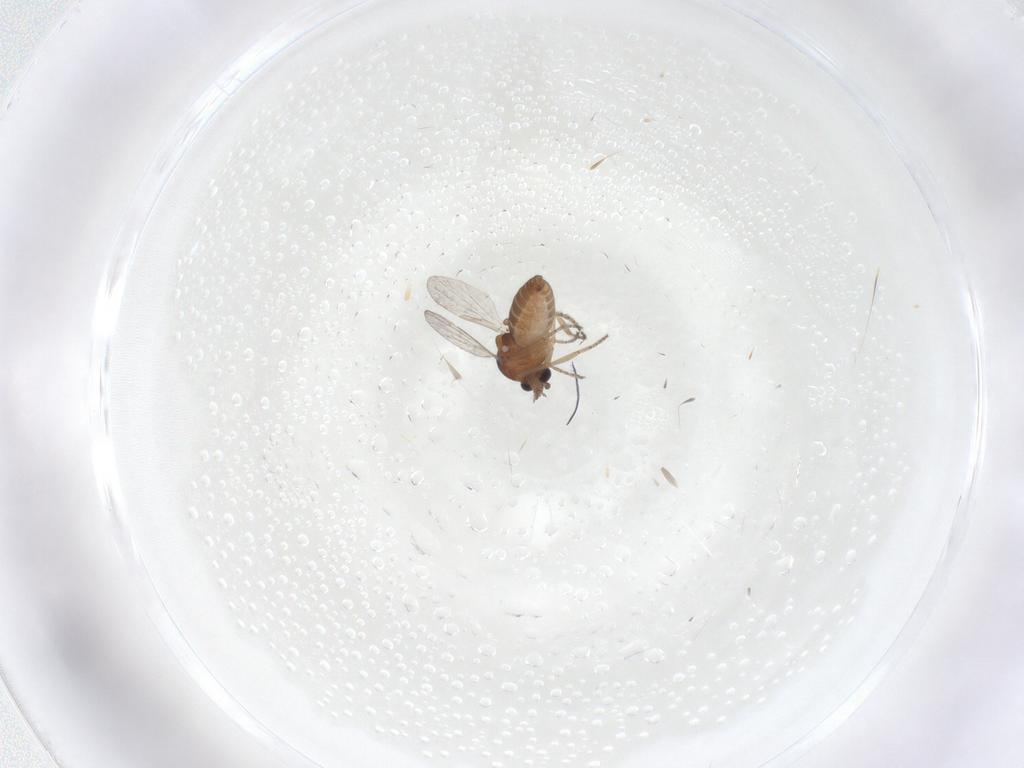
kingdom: Animalia
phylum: Arthropoda
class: Insecta
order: Diptera
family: Ceratopogonidae
